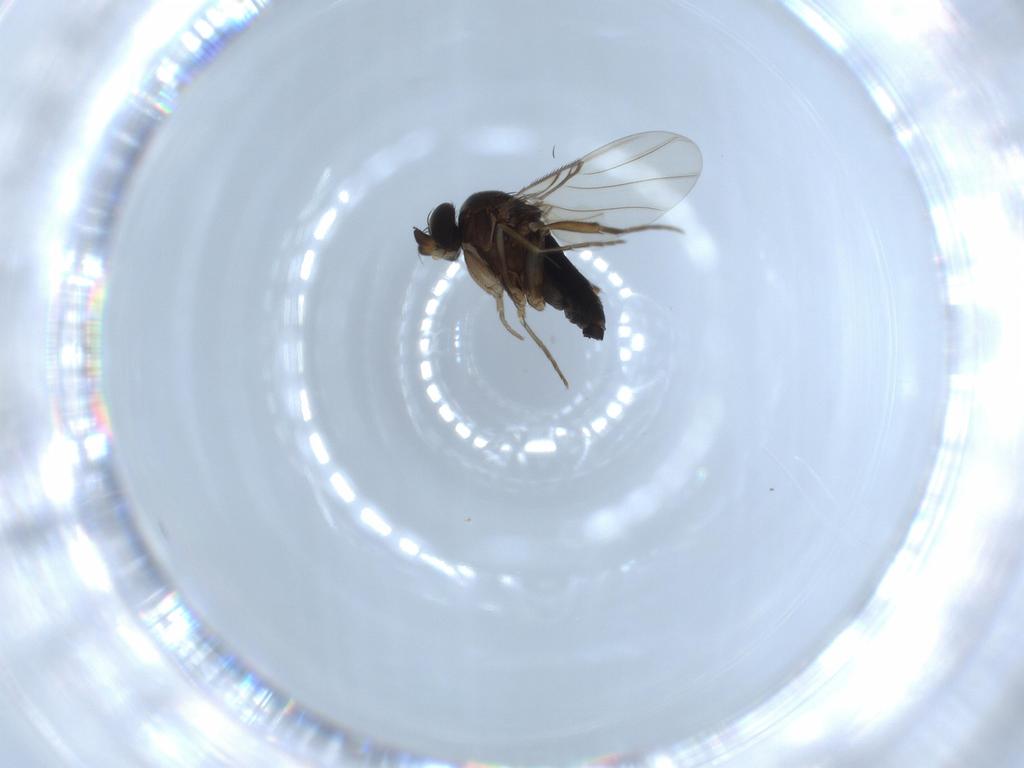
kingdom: Animalia
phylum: Arthropoda
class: Insecta
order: Diptera
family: Phoridae
